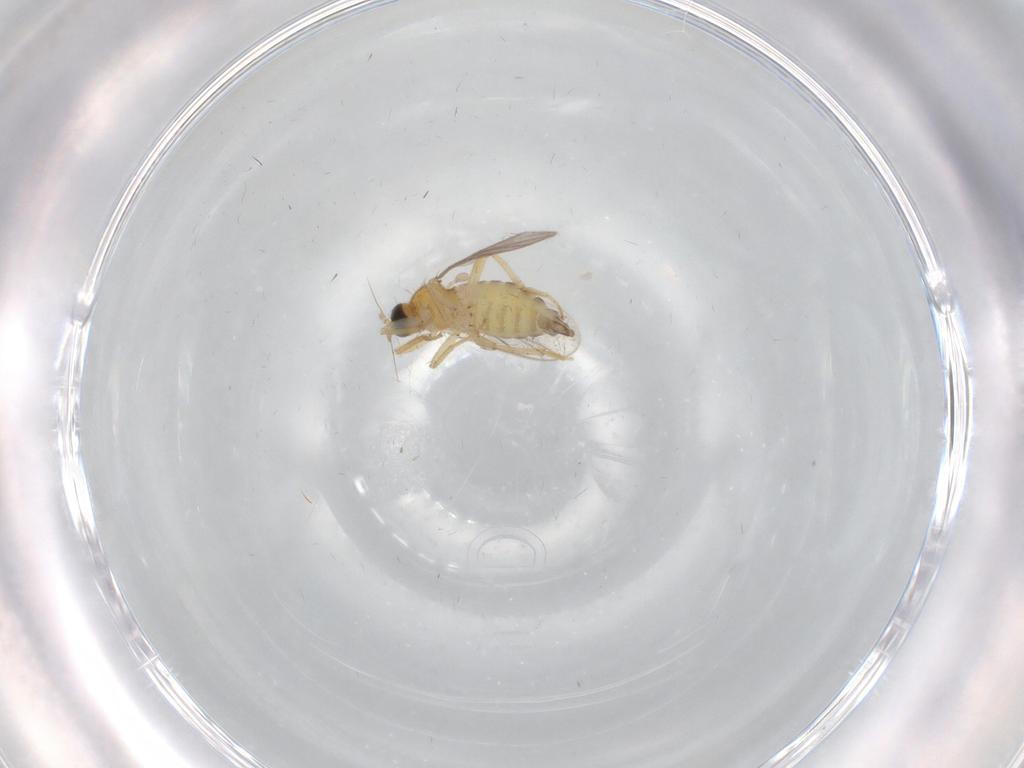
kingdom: Animalia
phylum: Arthropoda
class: Insecta
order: Diptera
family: Hybotidae
